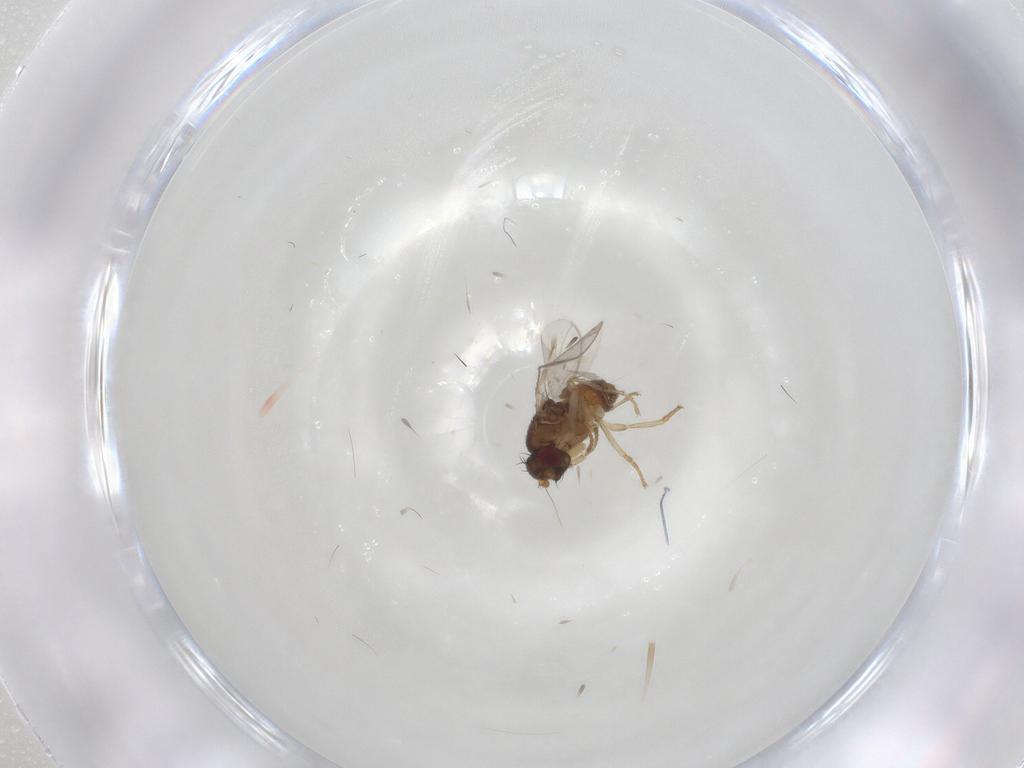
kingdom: Animalia
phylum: Arthropoda
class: Insecta
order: Diptera
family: Sphaeroceridae
